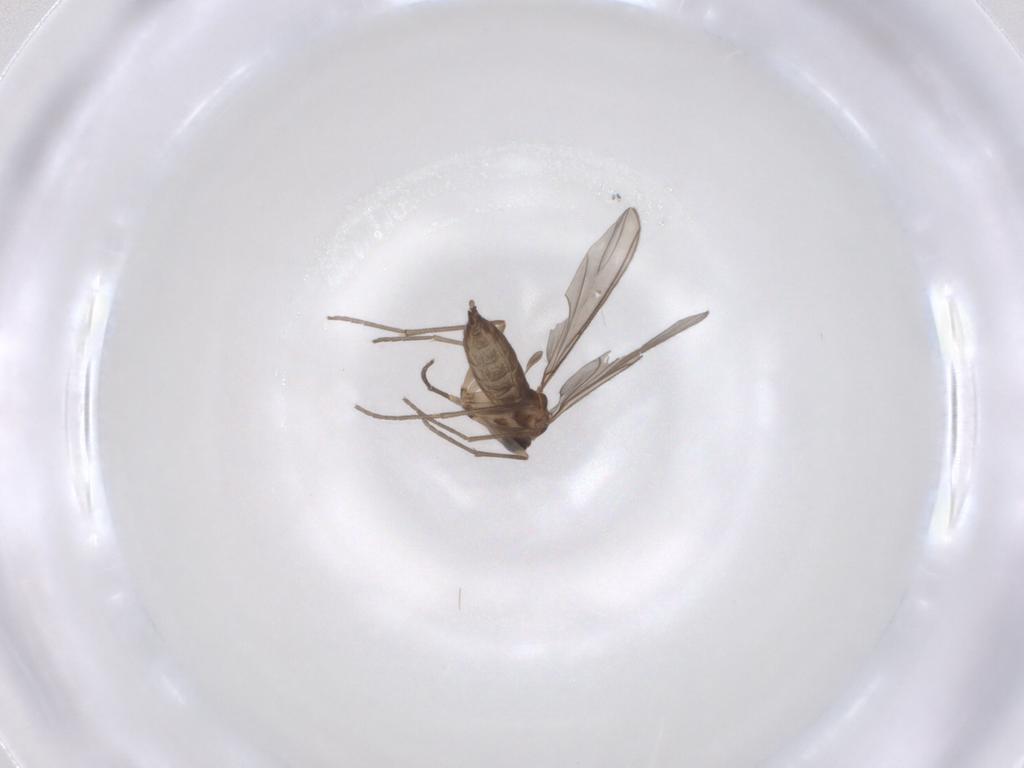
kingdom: Animalia
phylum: Arthropoda
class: Insecta
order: Diptera
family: Sciaridae
